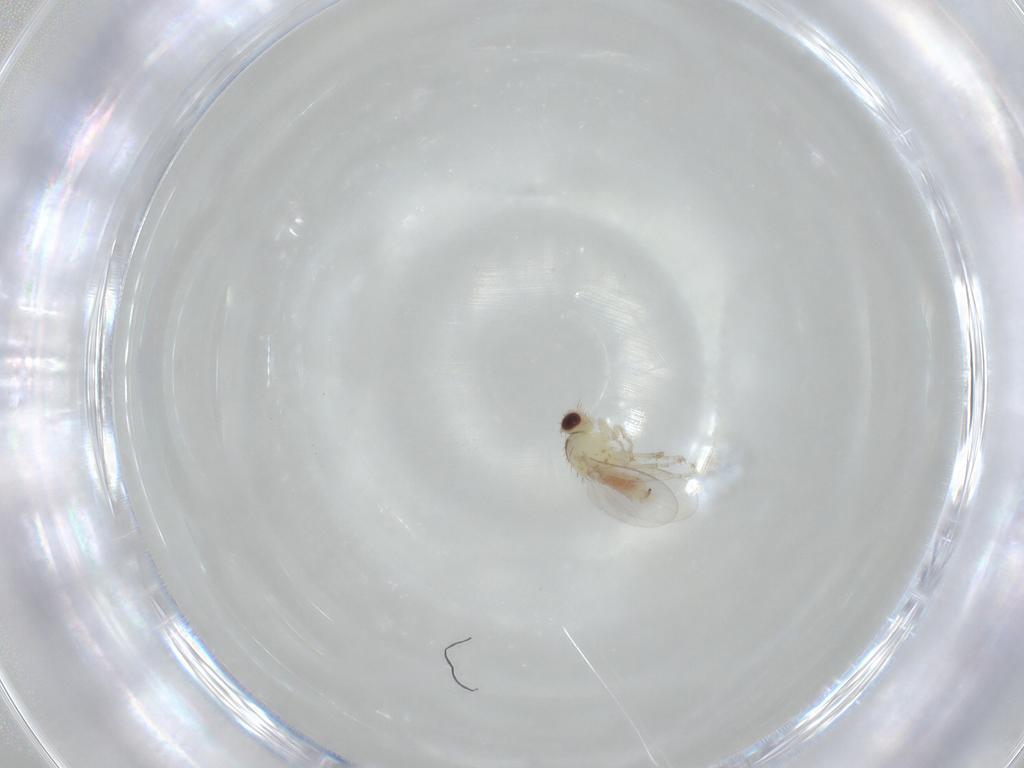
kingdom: Animalia
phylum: Arthropoda
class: Insecta
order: Diptera
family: Agromyzidae
